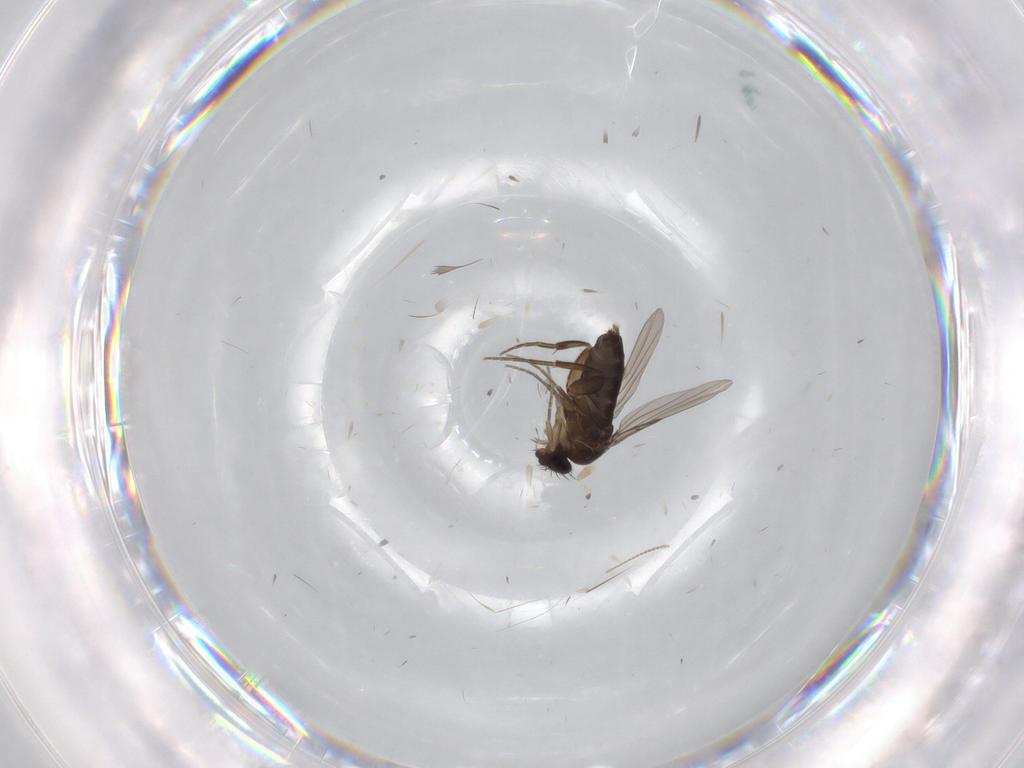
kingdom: Animalia
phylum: Arthropoda
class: Insecta
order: Diptera
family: Chironomidae
